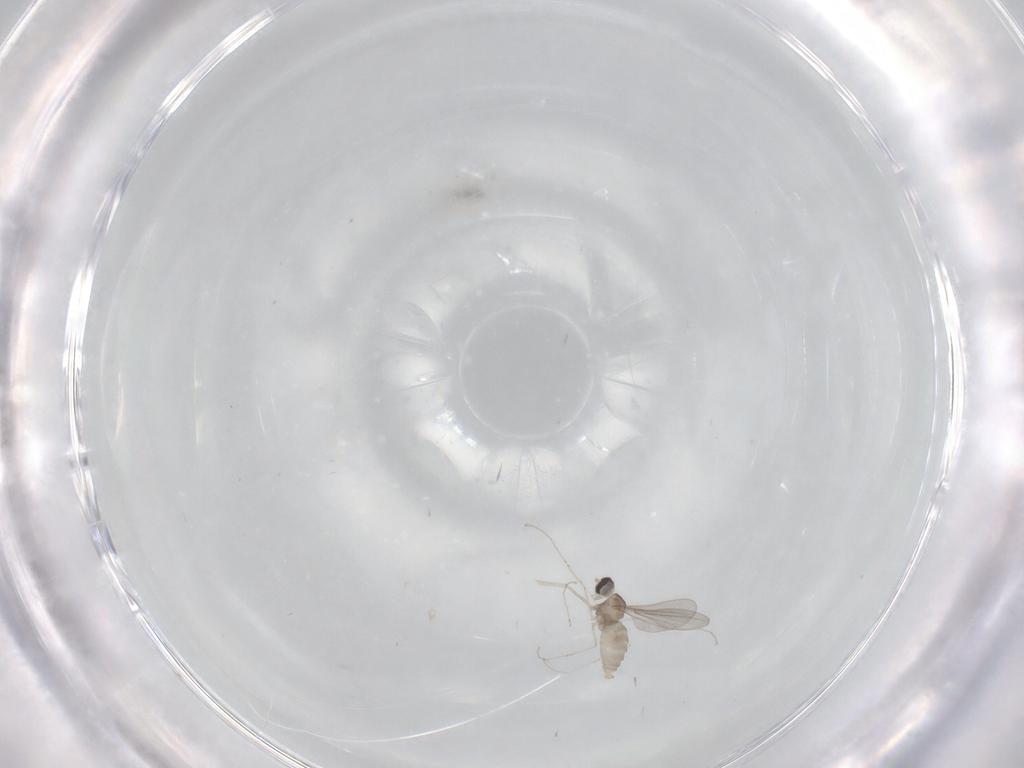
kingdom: Animalia
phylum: Arthropoda
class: Insecta
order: Diptera
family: Cecidomyiidae
